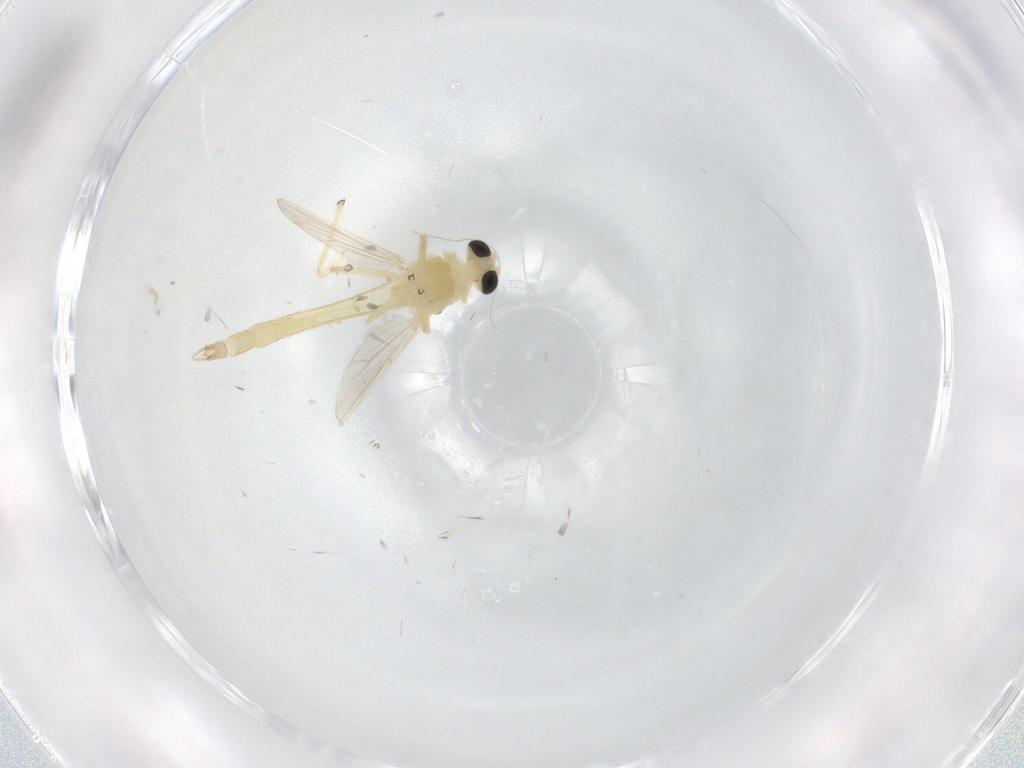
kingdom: Animalia
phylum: Arthropoda
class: Insecta
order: Diptera
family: Chironomidae
